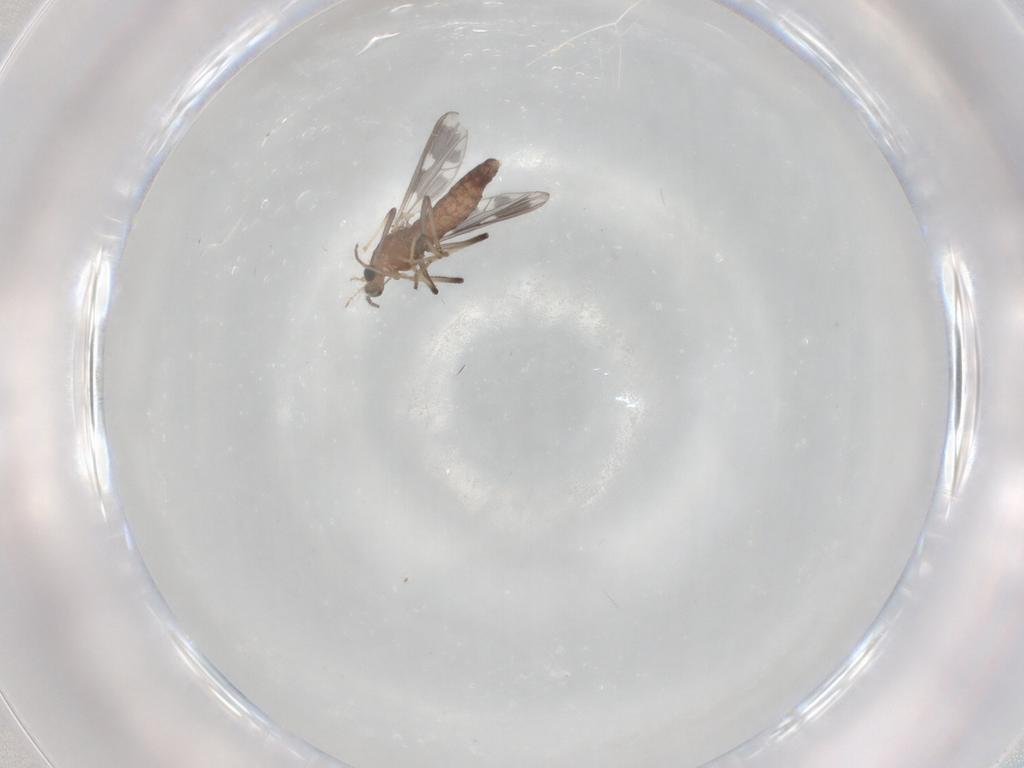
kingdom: Animalia
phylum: Arthropoda
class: Insecta
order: Diptera
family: Chironomidae
